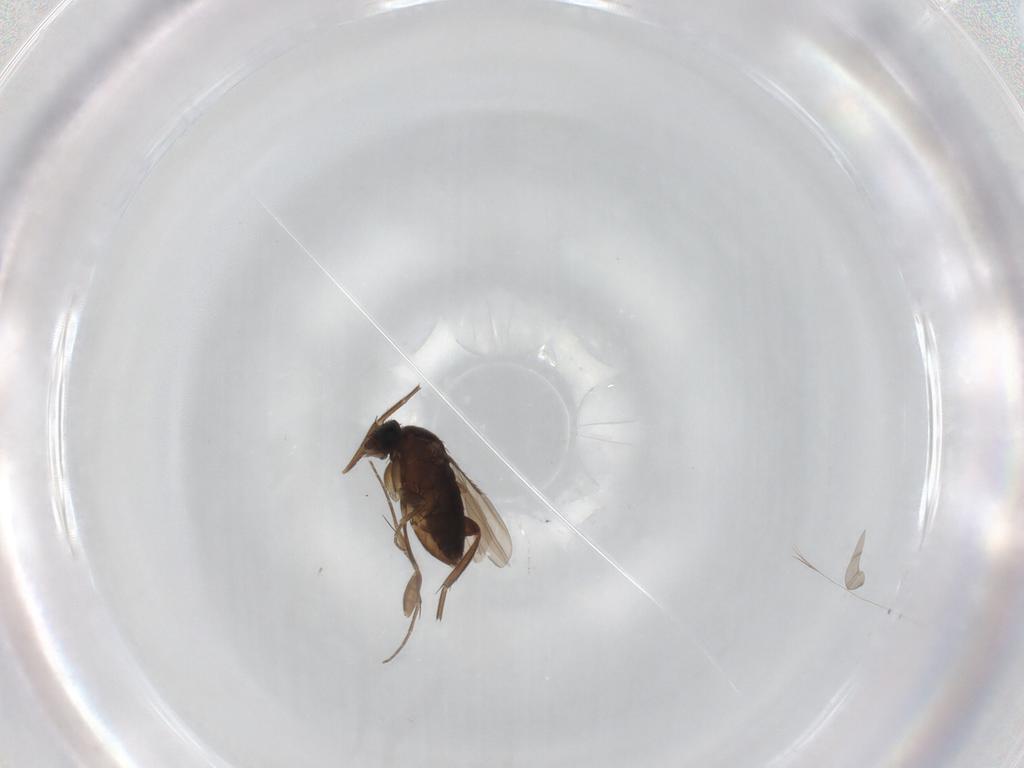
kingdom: Animalia
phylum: Arthropoda
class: Insecta
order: Diptera
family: Phoridae
